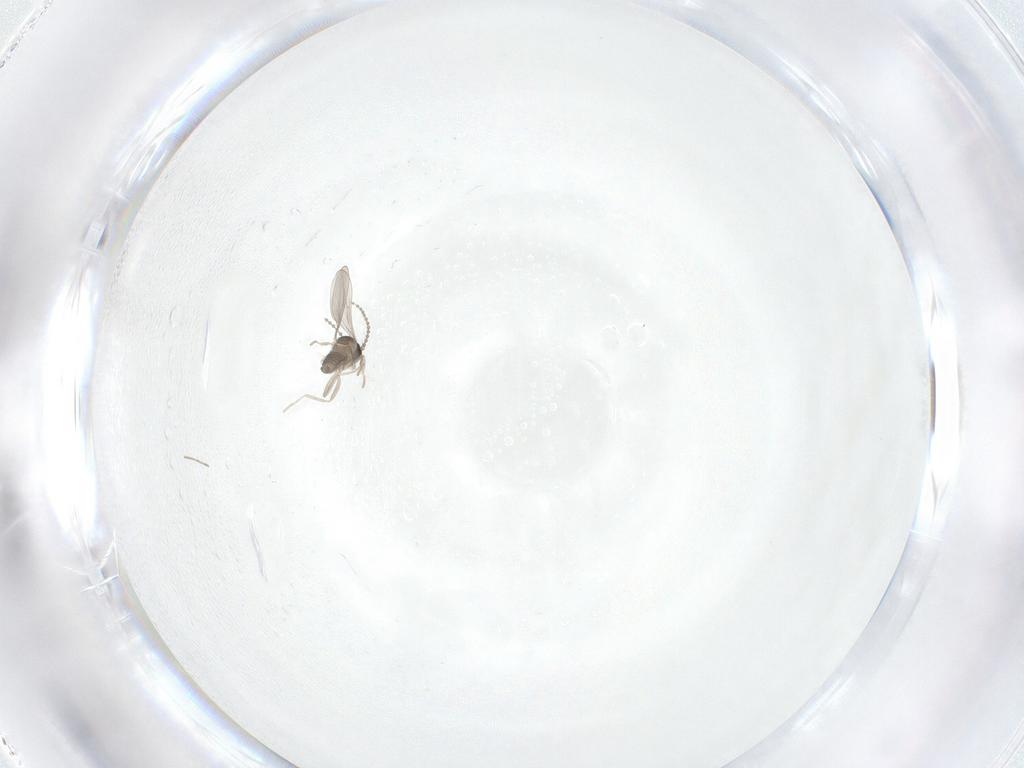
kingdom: Animalia
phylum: Arthropoda
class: Insecta
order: Diptera
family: Cecidomyiidae
